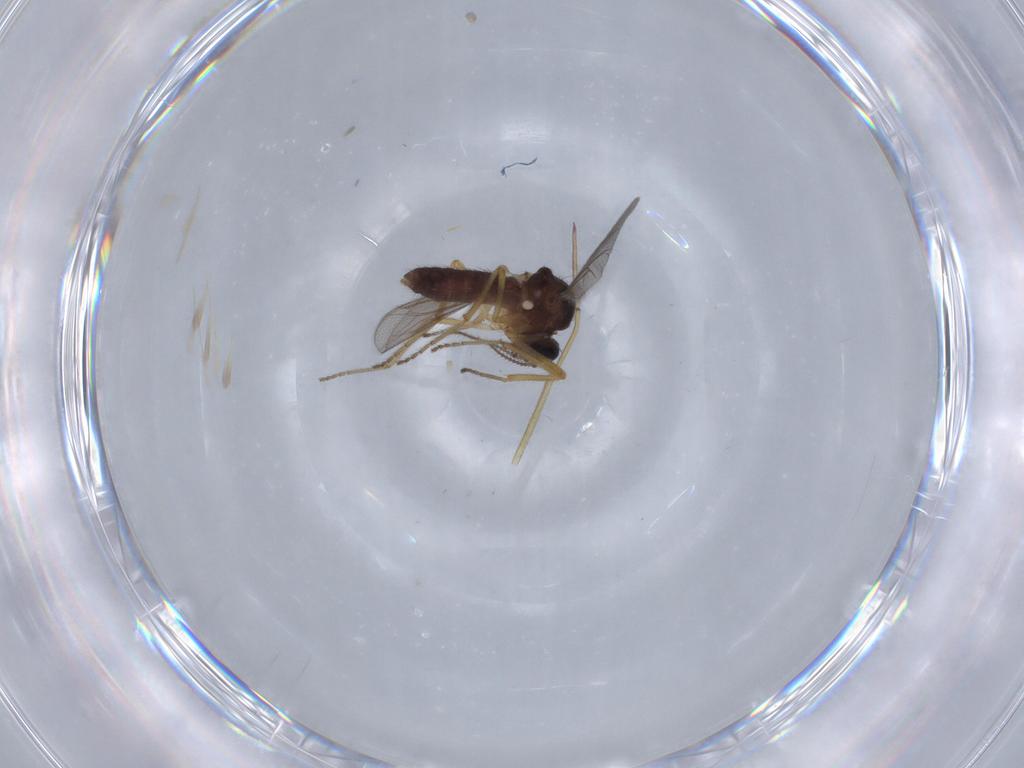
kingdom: Animalia
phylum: Arthropoda
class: Insecta
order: Diptera
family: Ceratopogonidae
